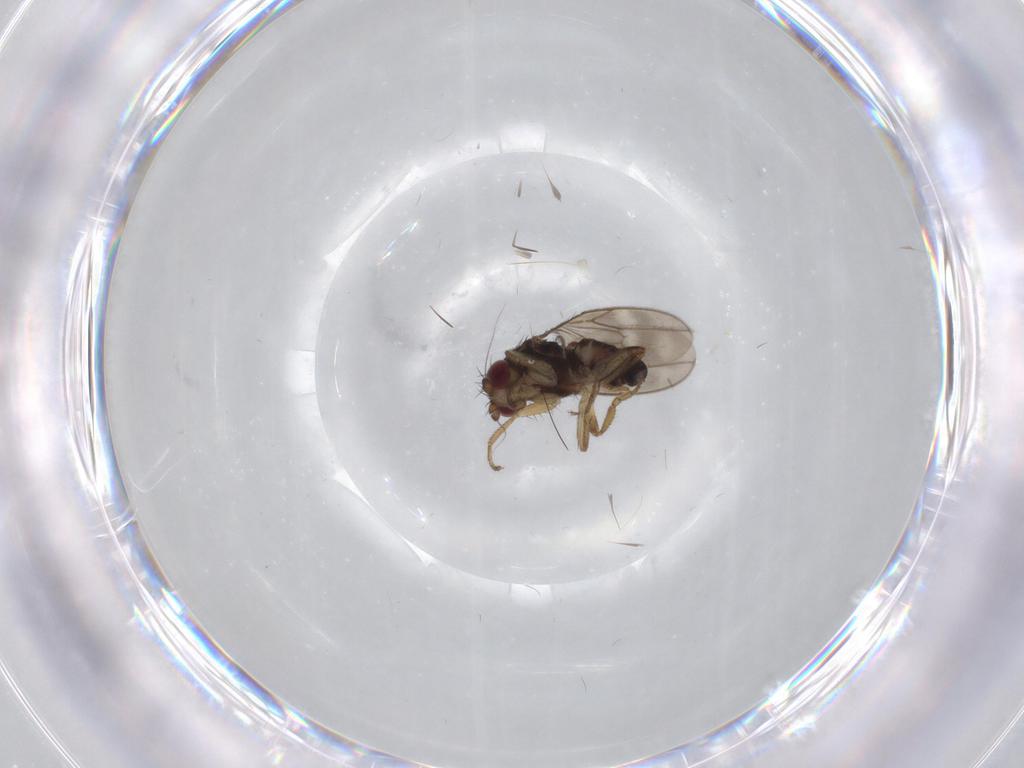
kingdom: Animalia
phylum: Arthropoda
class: Insecta
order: Diptera
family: Sphaeroceridae
